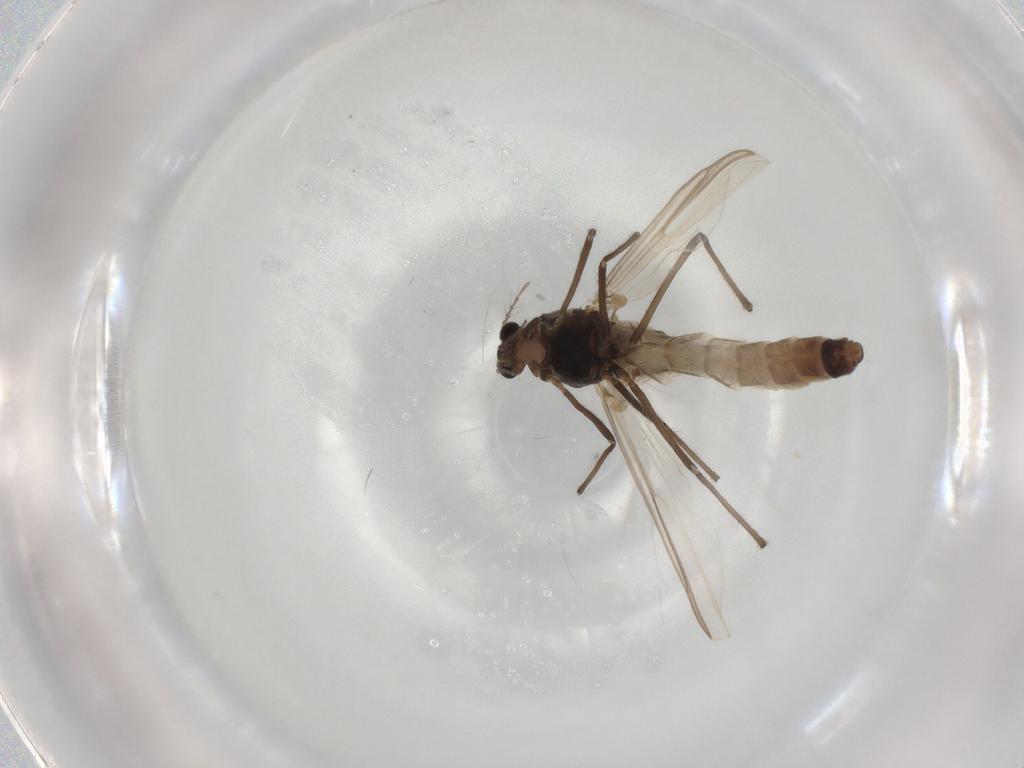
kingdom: Animalia
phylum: Arthropoda
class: Insecta
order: Diptera
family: Chironomidae
